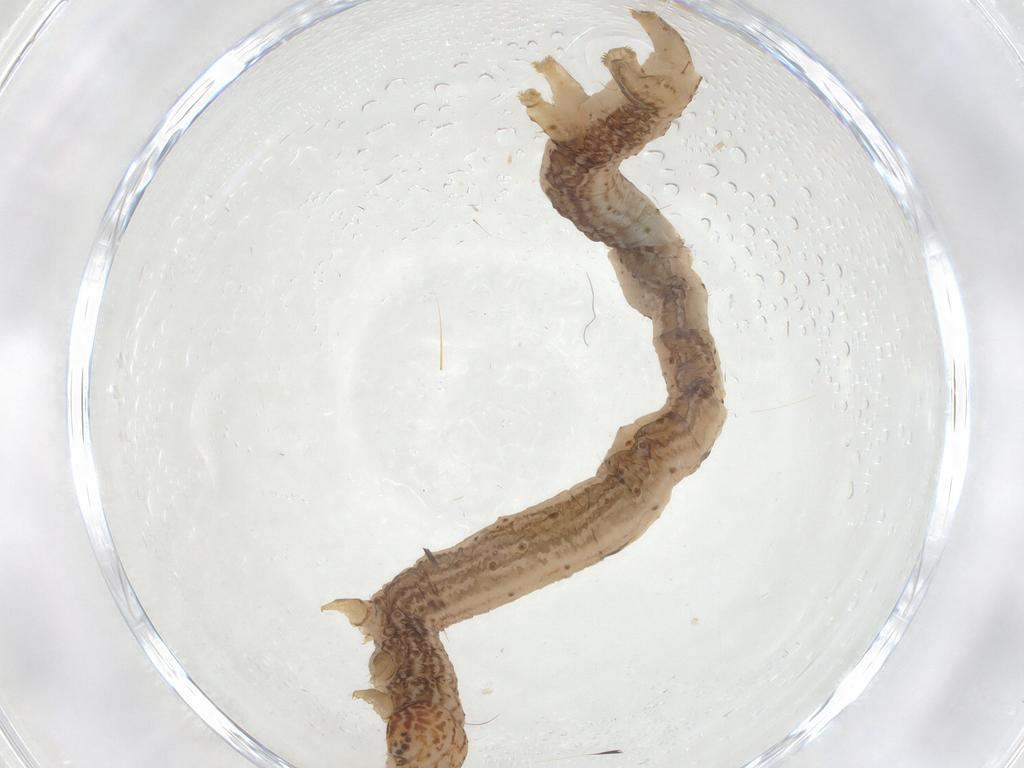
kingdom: Animalia
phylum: Arthropoda
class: Insecta
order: Lepidoptera
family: Geometridae
